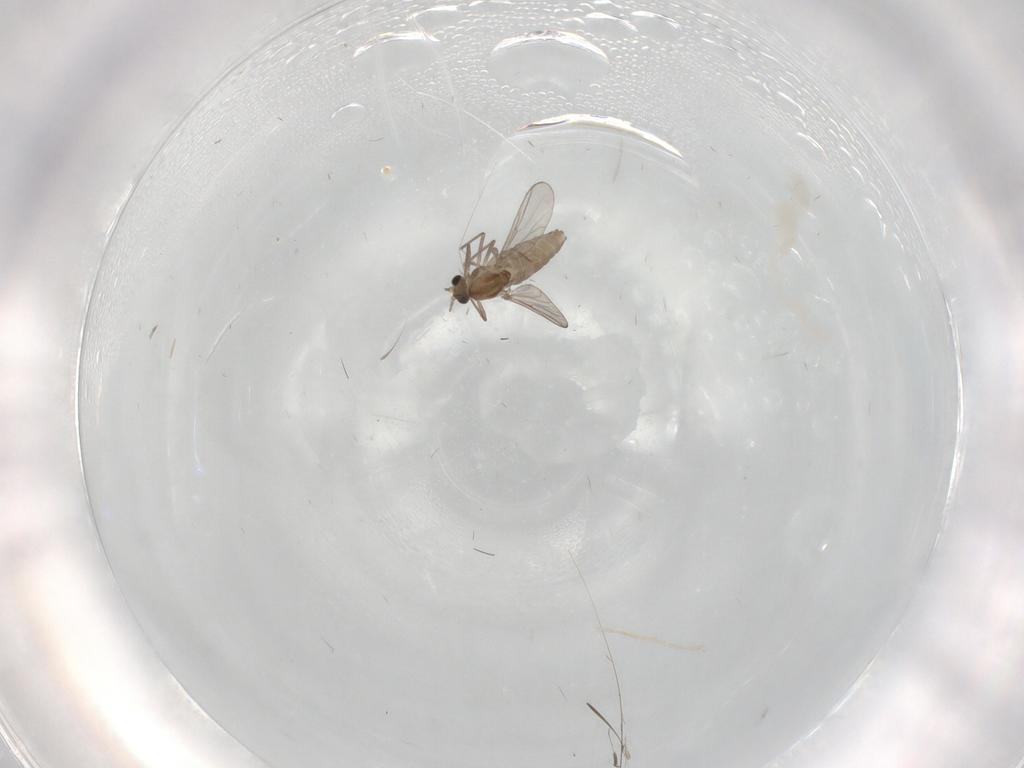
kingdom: Animalia
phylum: Arthropoda
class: Insecta
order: Diptera
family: Chironomidae
